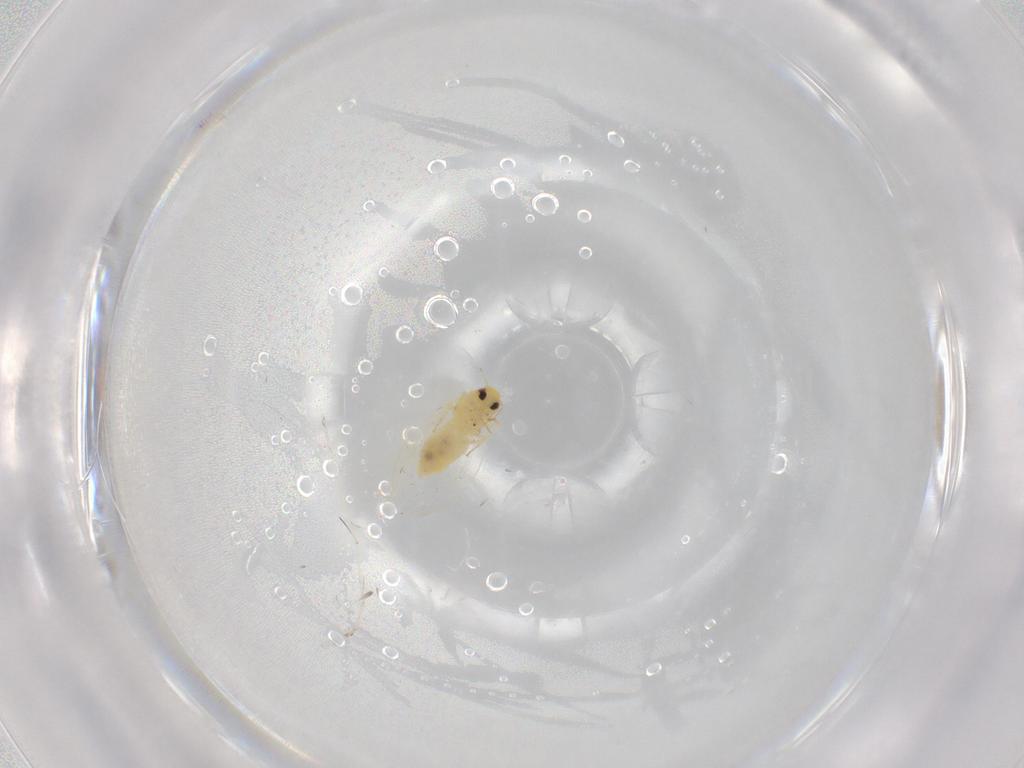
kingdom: Animalia
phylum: Arthropoda
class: Insecta
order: Hemiptera
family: Aleyrodidae
